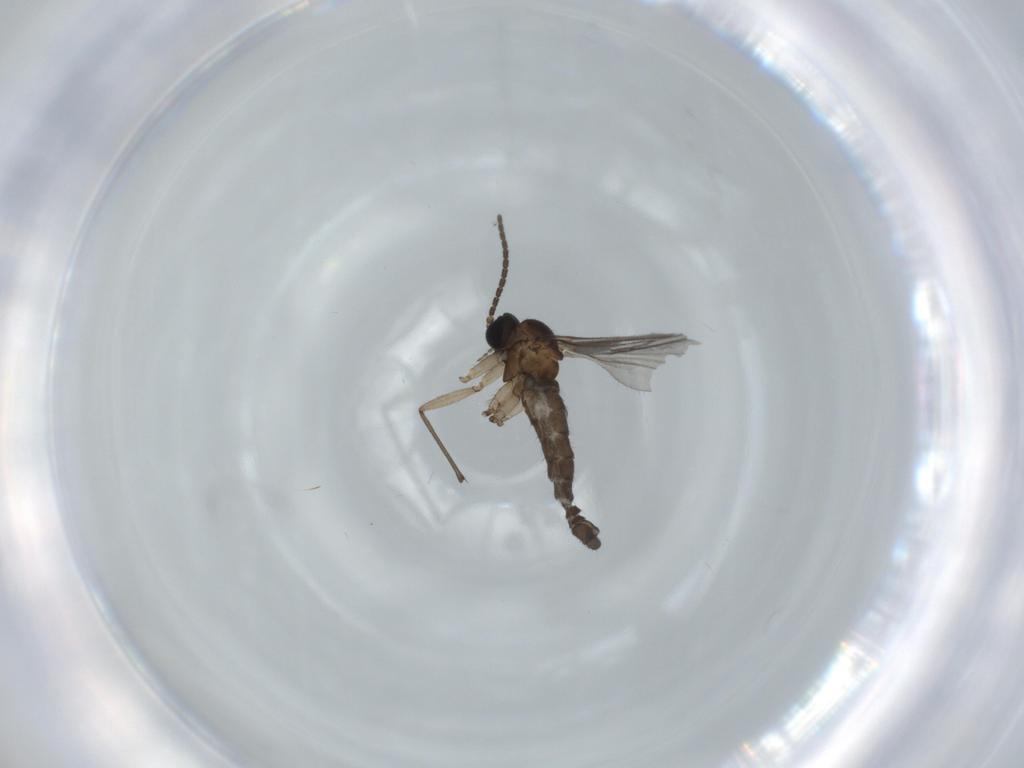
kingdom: Animalia
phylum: Arthropoda
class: Insecta
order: Diptera
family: Sciaridae
